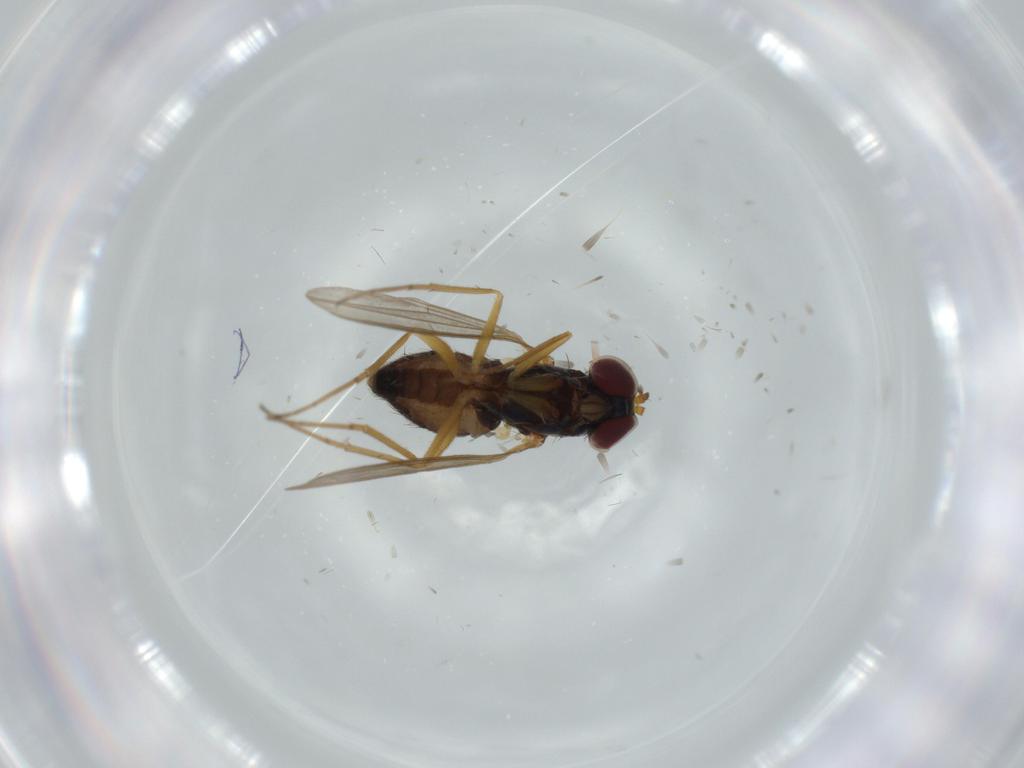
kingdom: Animalia
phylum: Arthropoda
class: Insecta
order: Diptera
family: Dolichopodidae
